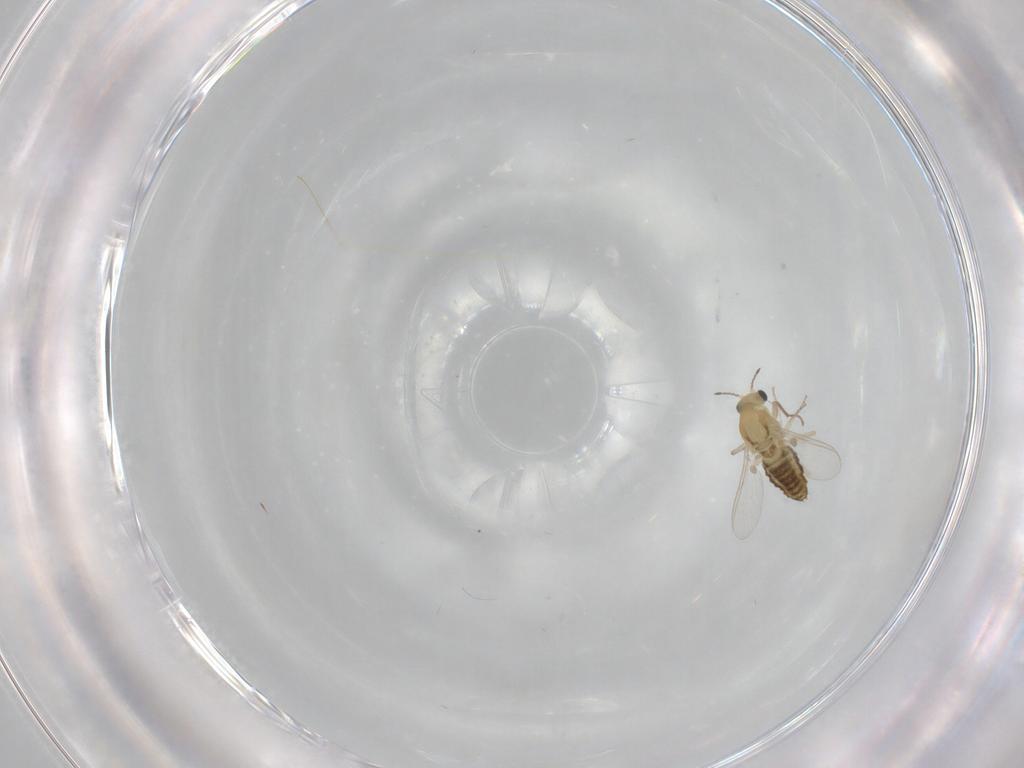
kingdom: Animalia
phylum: Arthropoda
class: Insecta
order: Diptera
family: Chironomidae
